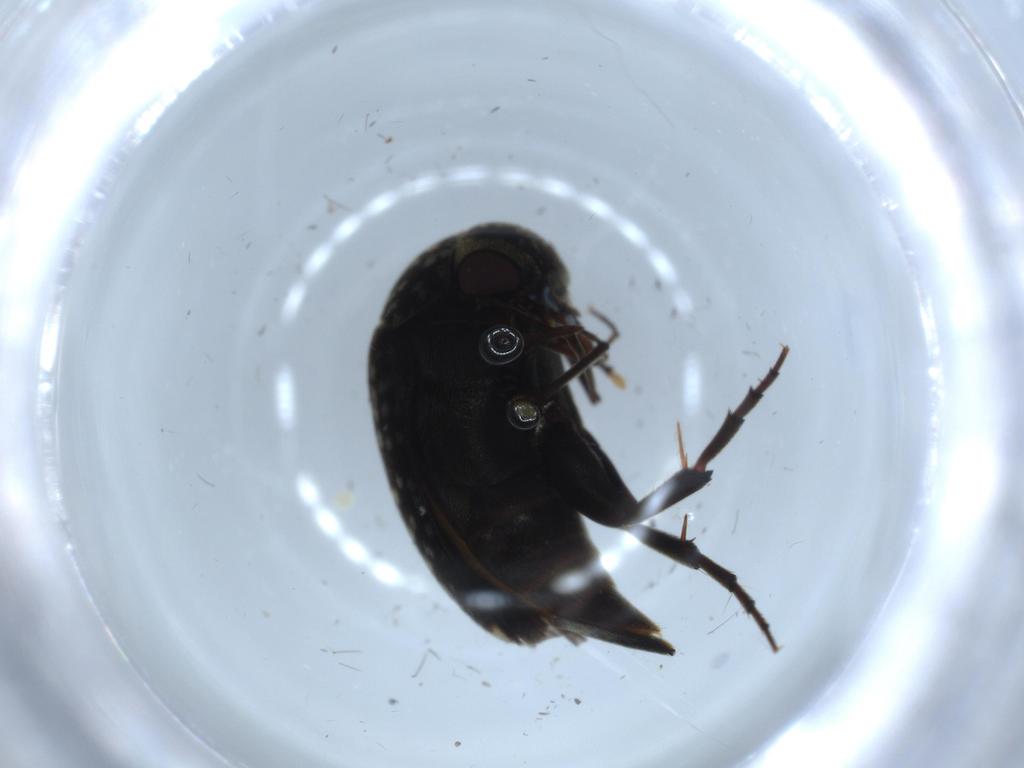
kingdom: Animalia
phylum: Arthropoda
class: Insecta
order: Coleoptera
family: Mordellidae
